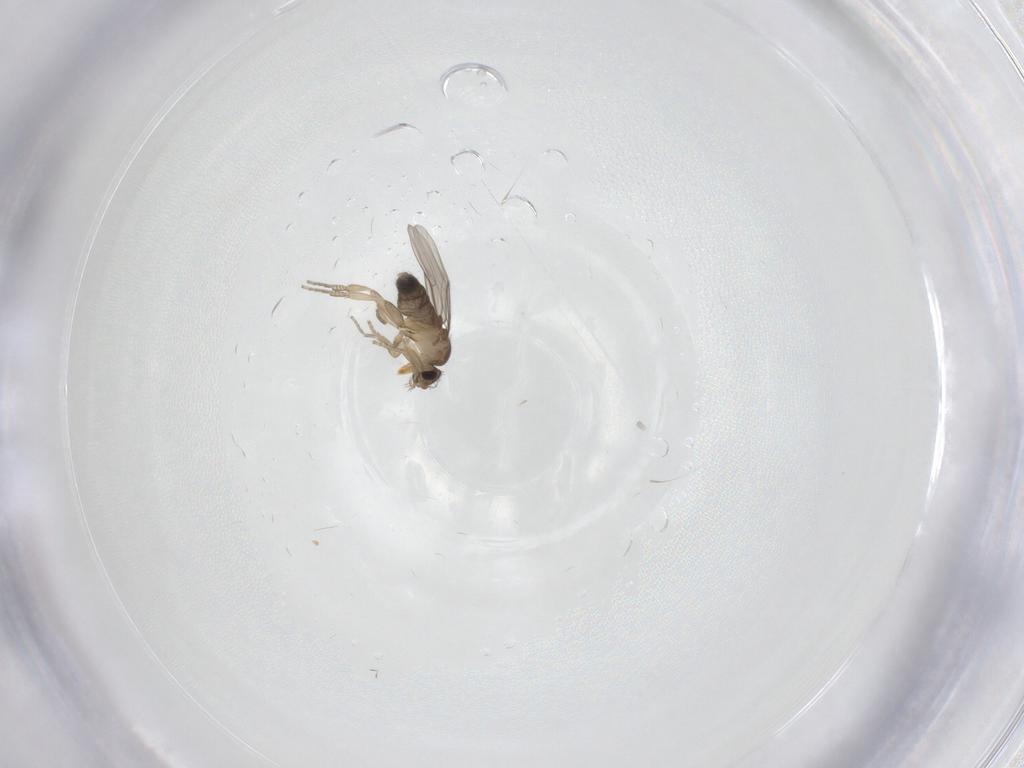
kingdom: Animalia
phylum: Arthropoda
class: Insecta
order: Diptera
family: Phoridae
